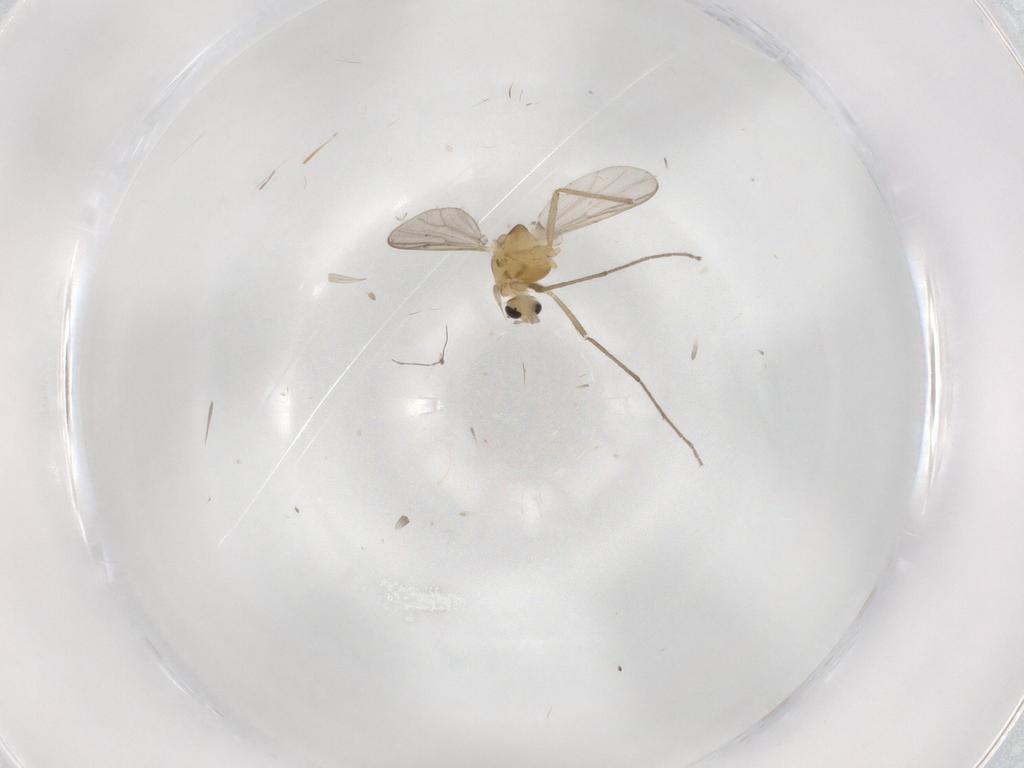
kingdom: Animalia
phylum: Arthropoda
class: Insecta
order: Diptera
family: Chironomidae
